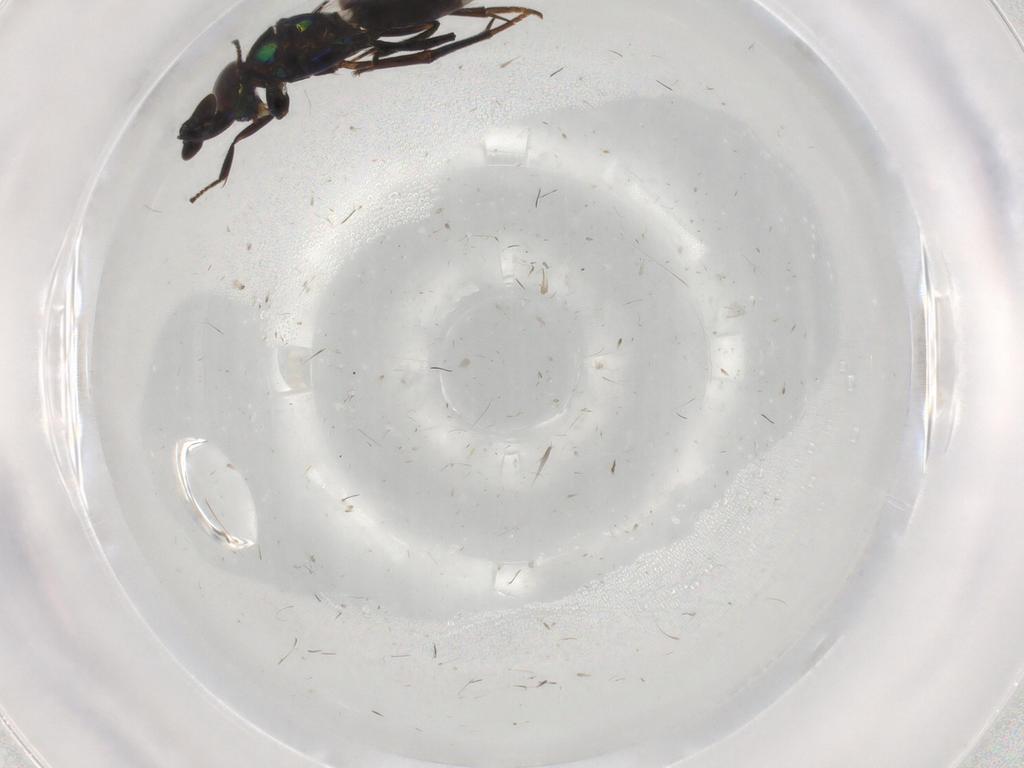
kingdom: Animalia
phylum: Arthropoda
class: Insecta
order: Hymenoptera
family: Encyrtidae
